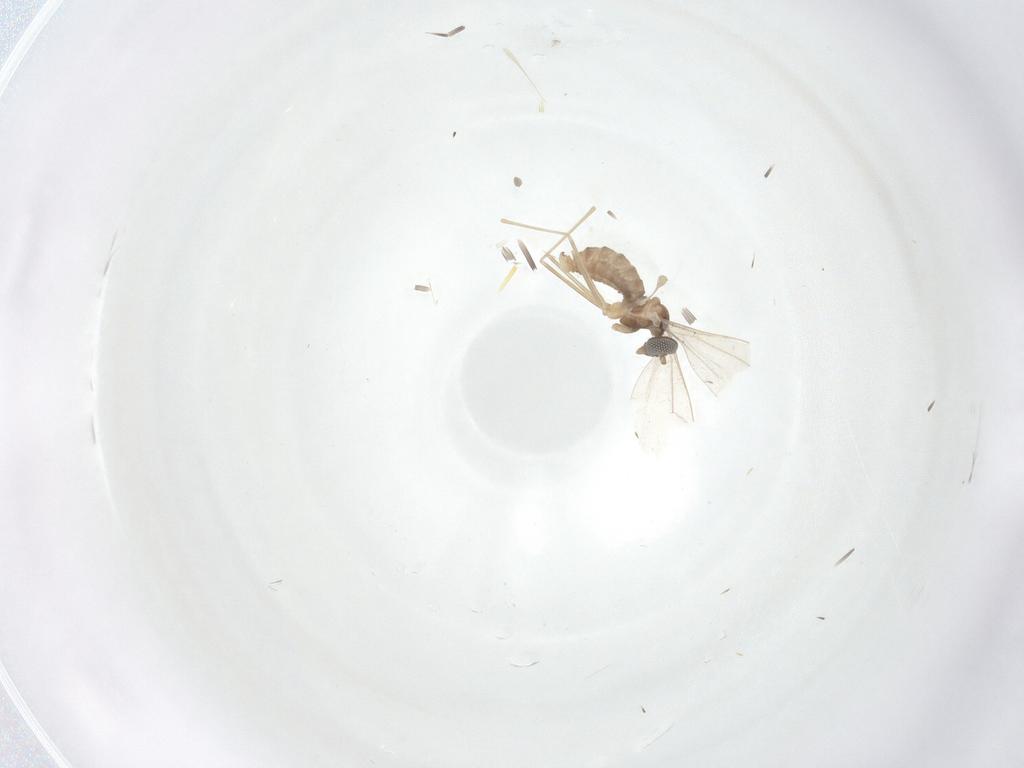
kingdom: Animalia
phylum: Arthropoda
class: Insecta
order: Diptera
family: Cecidomyiidae
